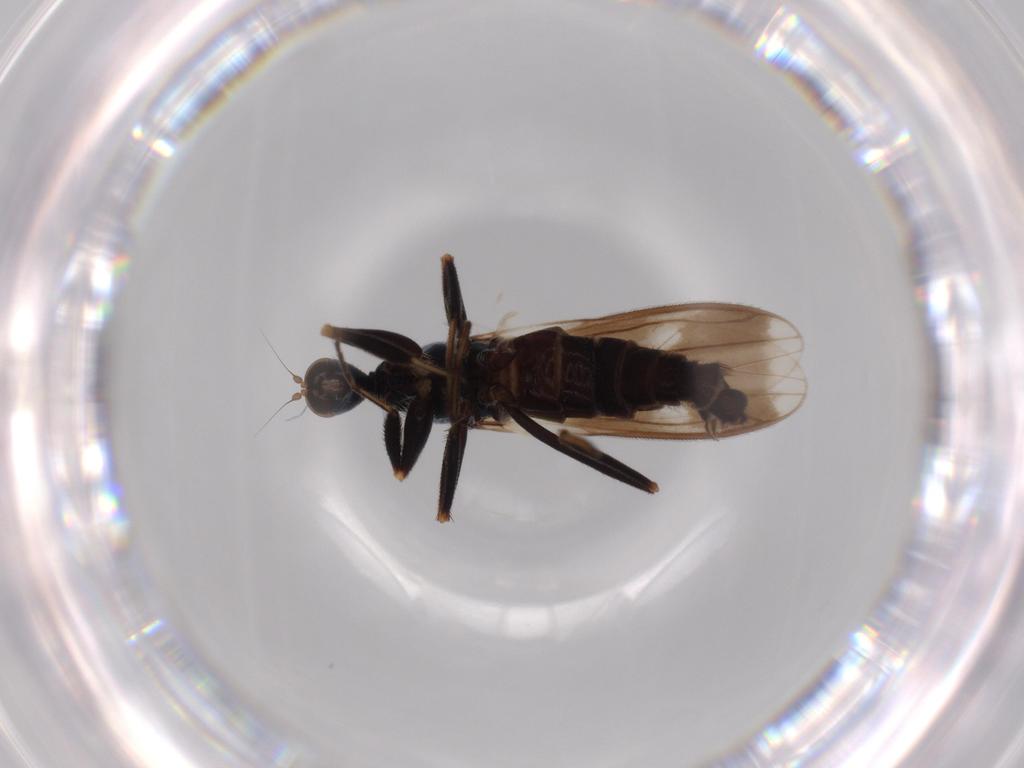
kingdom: Animalia
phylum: Arthropoda
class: Insecta
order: Diptera
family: Cecidomyiidae
